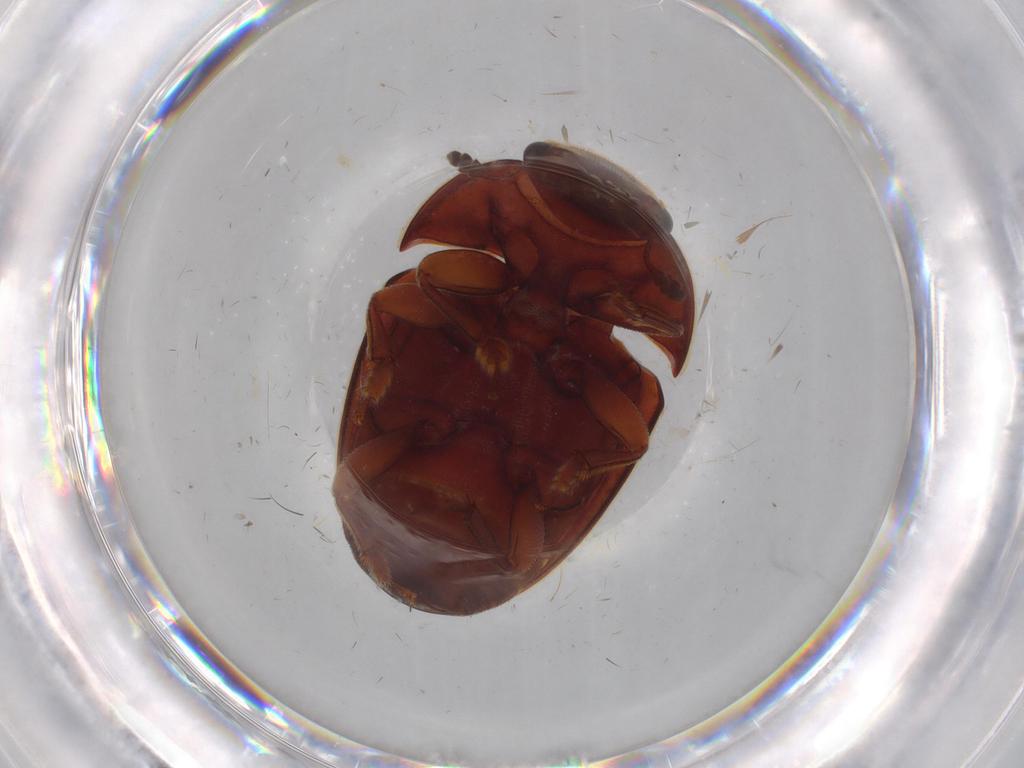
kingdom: Animalia
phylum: Arthropoda
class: Insecta
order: Coleoptera
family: Nitidulidae
